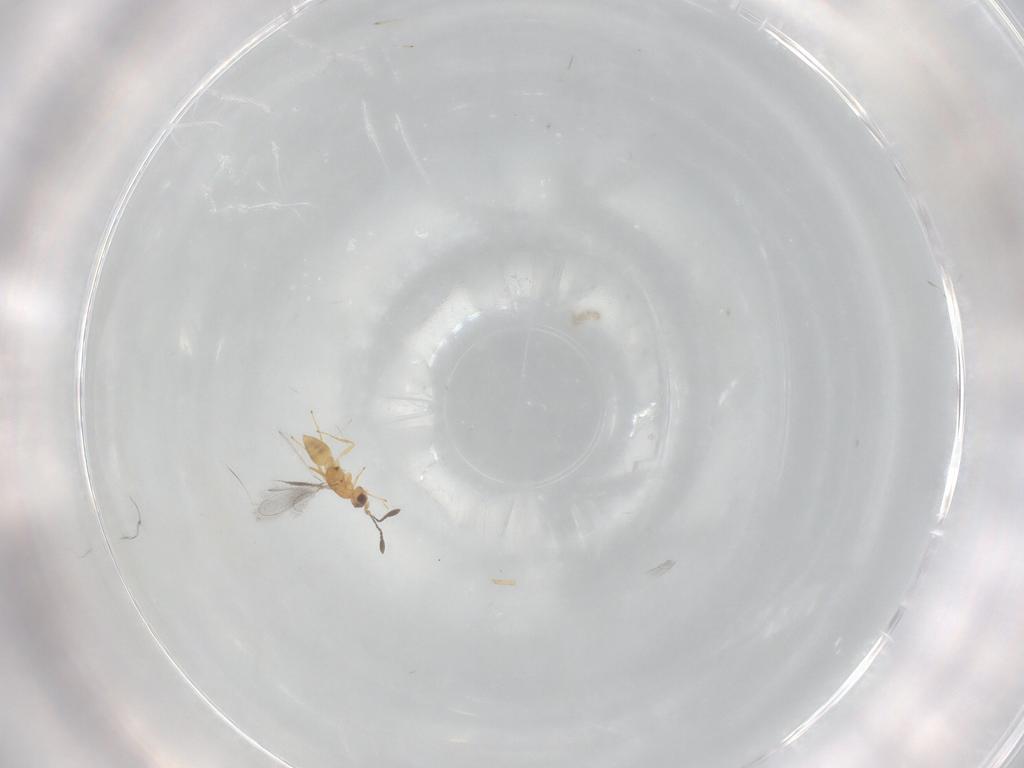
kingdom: Animalia
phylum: Arthropoda
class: Insecta
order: Hymenoptera
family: Mymaridae
